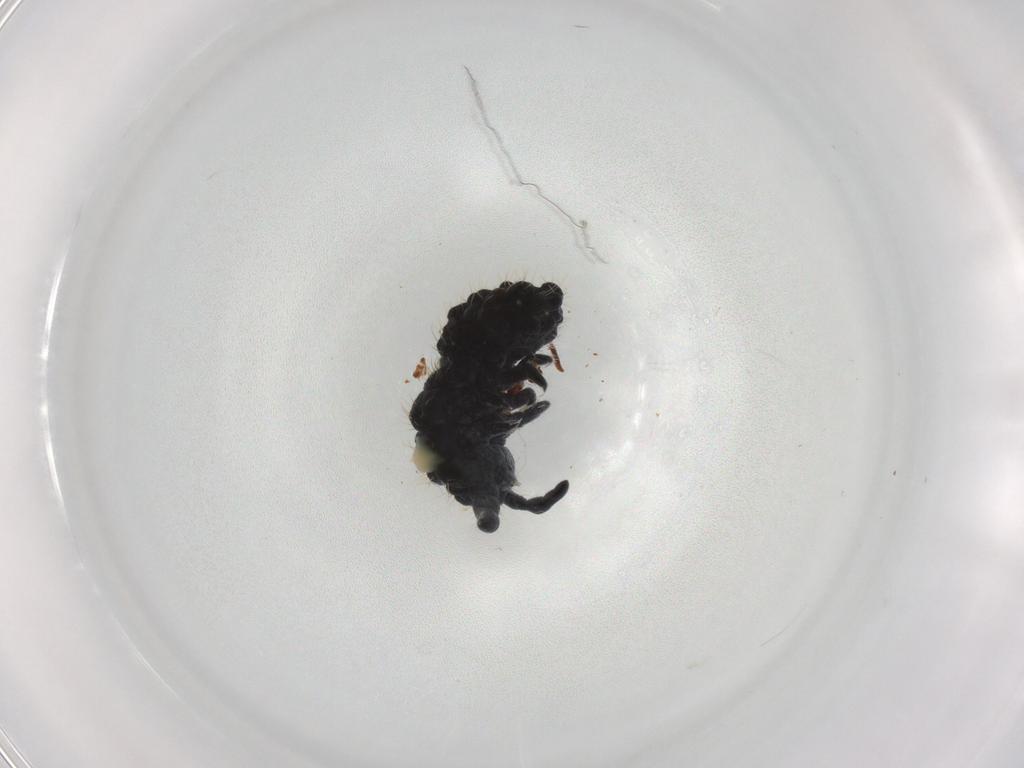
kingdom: Animalia
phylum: Arthropoda
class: Collembola
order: Poduromorpha
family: Neanuridae
